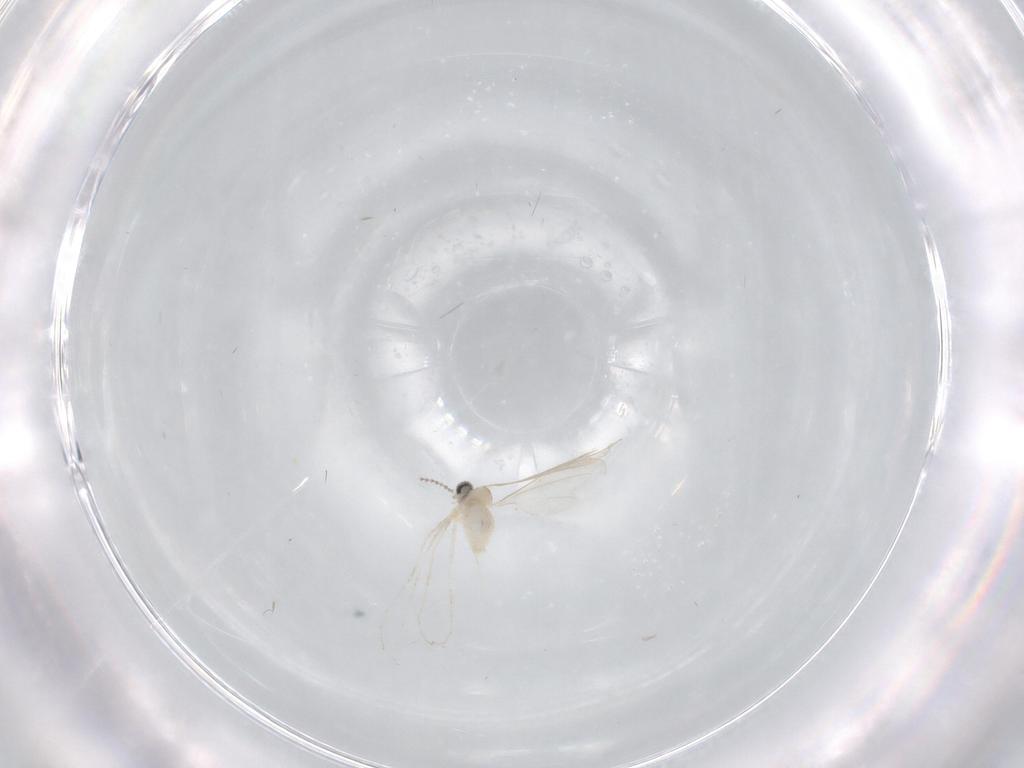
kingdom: Animalia
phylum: Arthropoda
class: Insecta
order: Diptera
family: Cecidomyiidae
